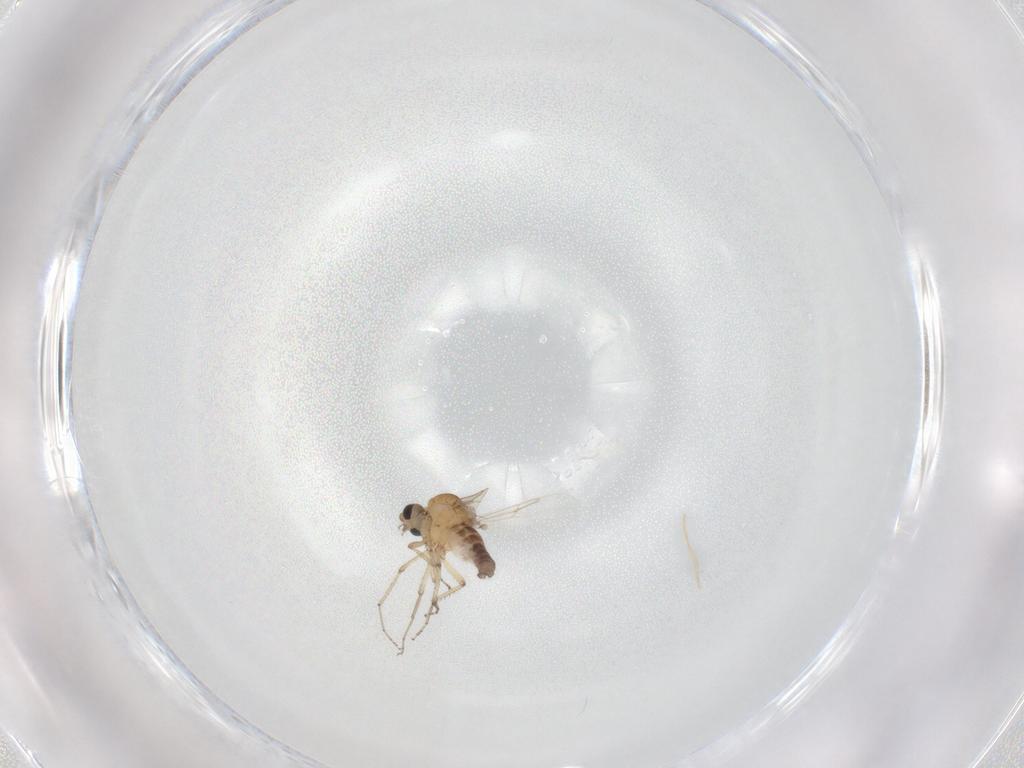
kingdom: Animalia
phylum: Arthropoda
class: Insecta
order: Diptera
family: Ceratopogonidae
